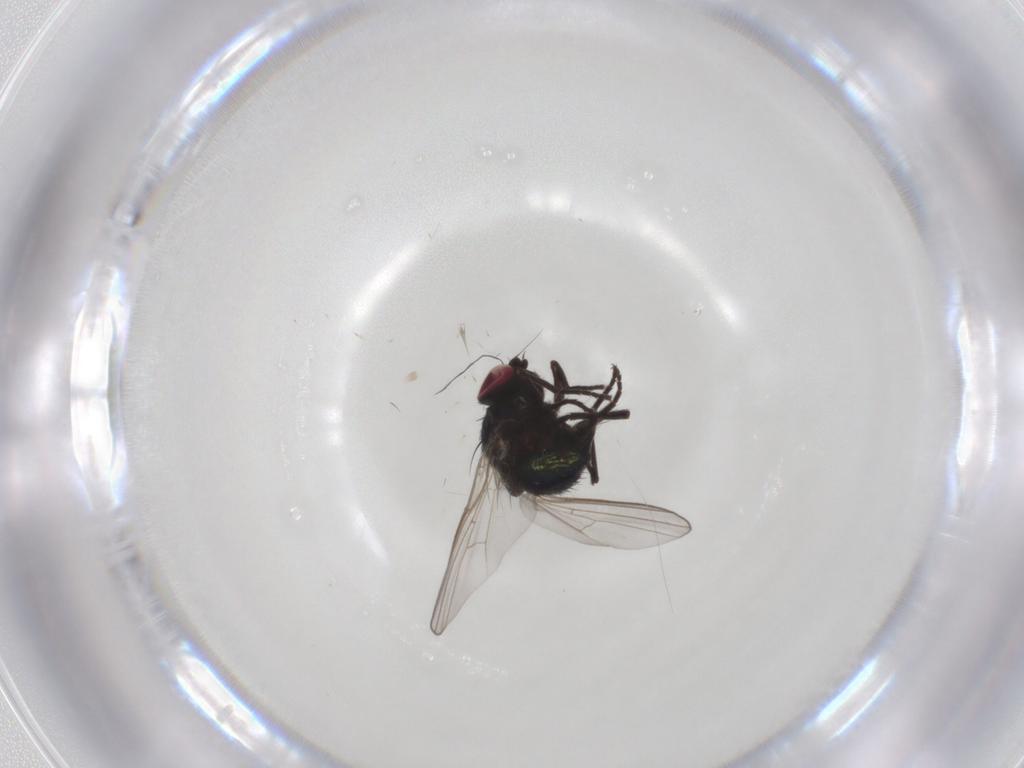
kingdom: Animalia
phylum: Arthropoda
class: Insecta
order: Diptera
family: Agromyzidae
